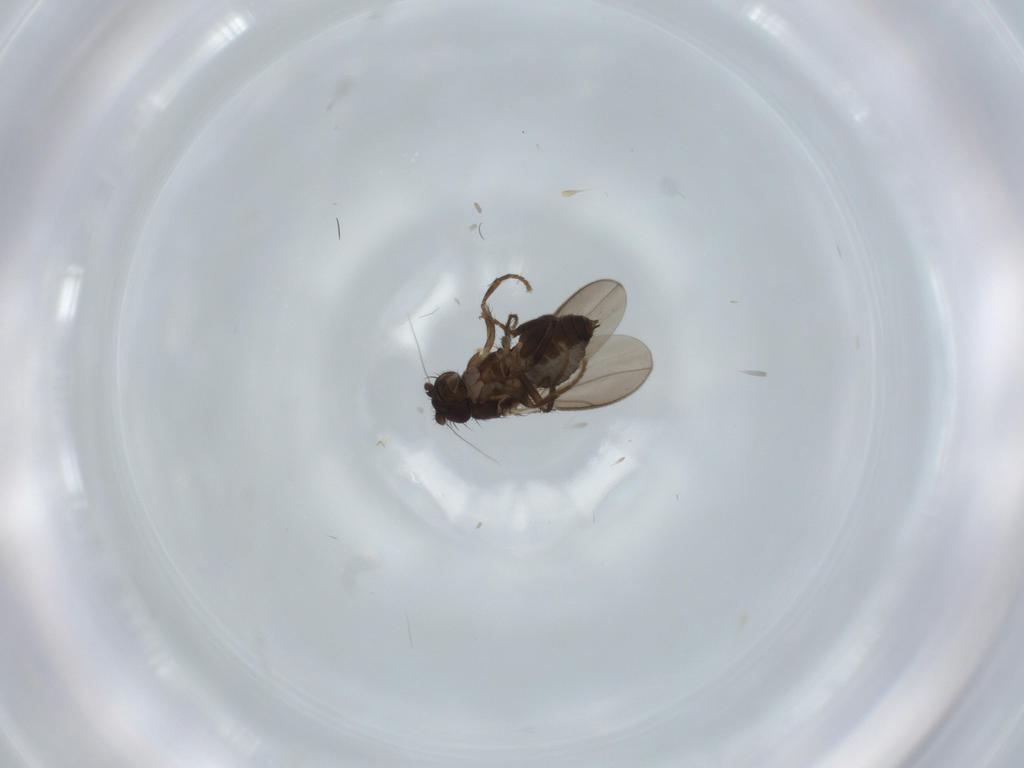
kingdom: Animalia
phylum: Arthropoda
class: Insecta
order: Diptera
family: Sphaeroceridae
